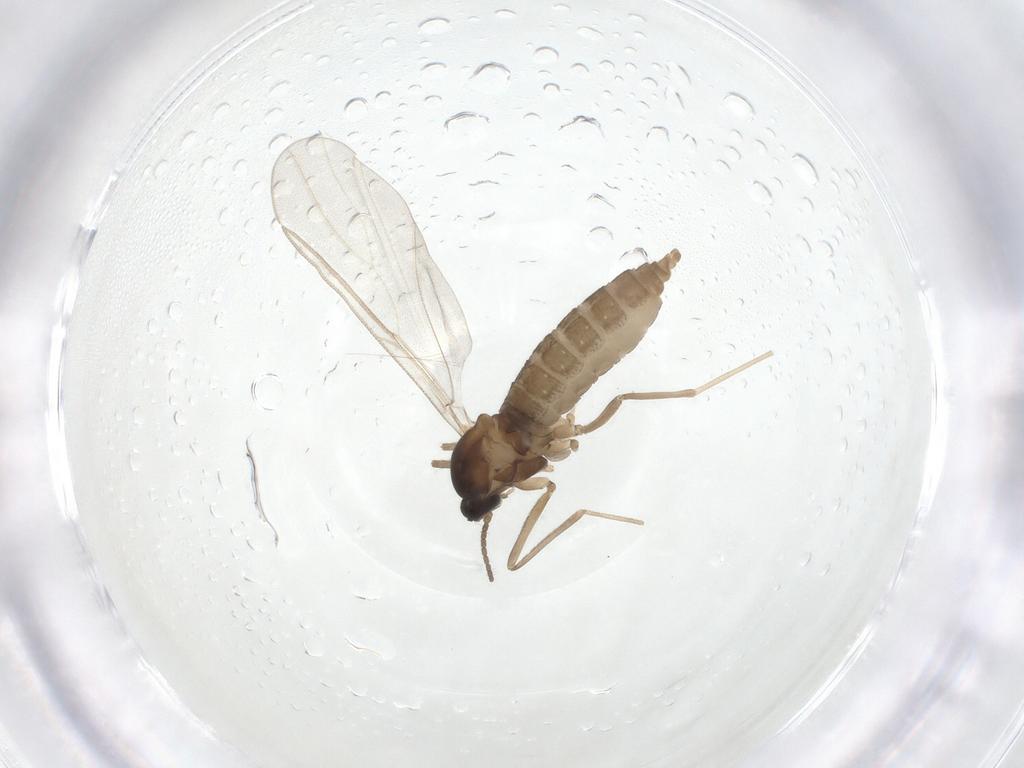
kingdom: Animalia
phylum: Arthropoda
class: Insecta
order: Diptera
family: Cecidomyiidae
